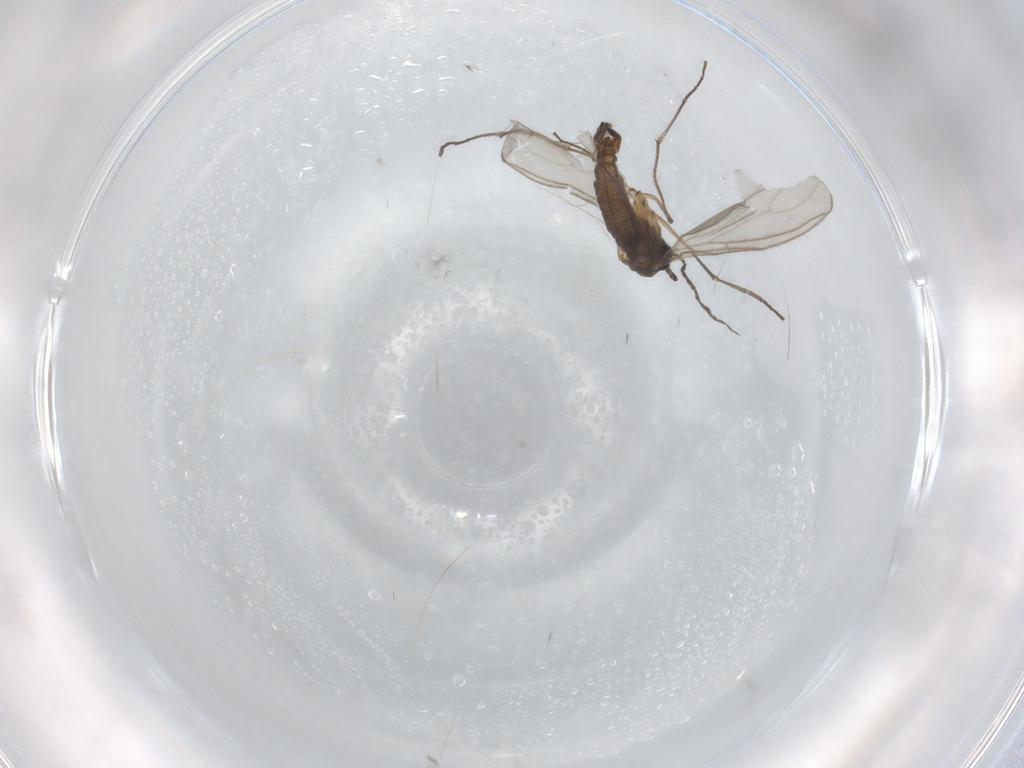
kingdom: Animalia
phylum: Arthropoda
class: Insecta
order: Diptera
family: Sciaridae
